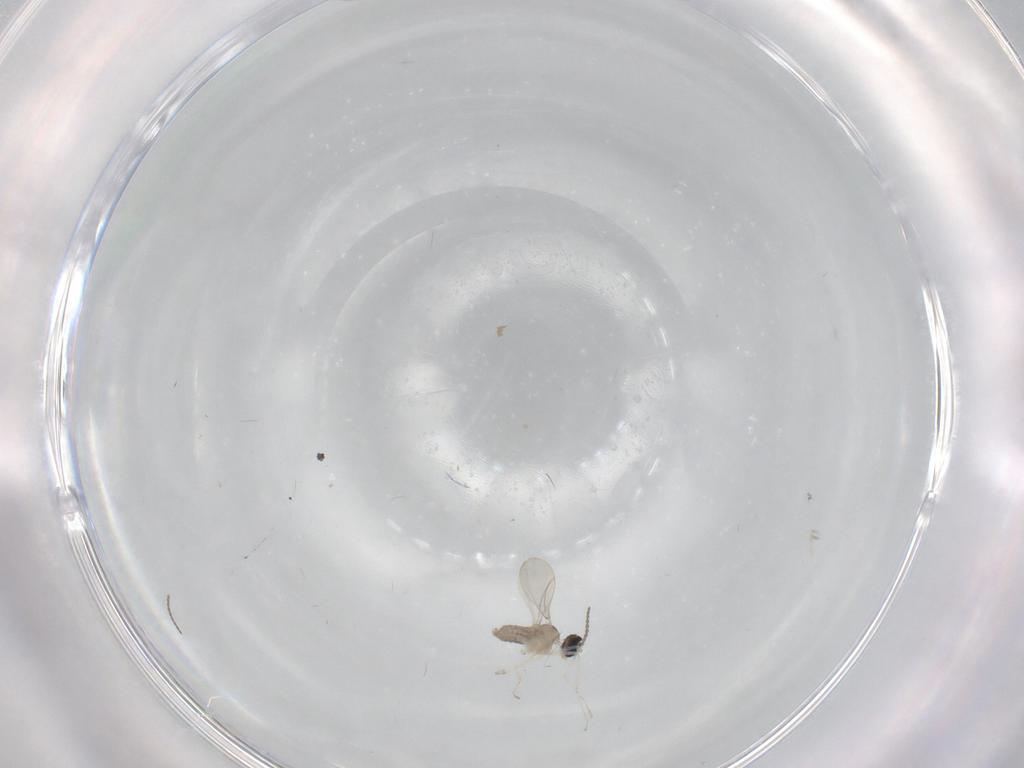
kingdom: Animalia
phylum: Arthropoda
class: Insecta
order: Diptera
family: Cecidomyiidae
